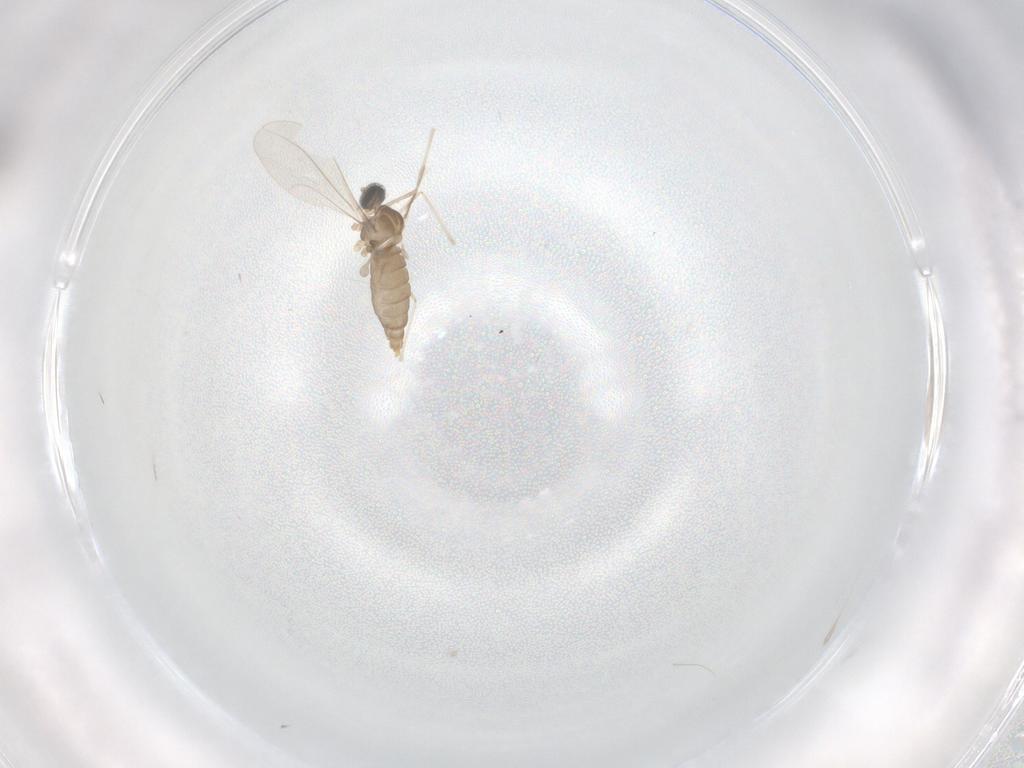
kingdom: Animalia
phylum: Arthropoda
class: Insecta
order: Diptera
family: Cecidomyiidae
